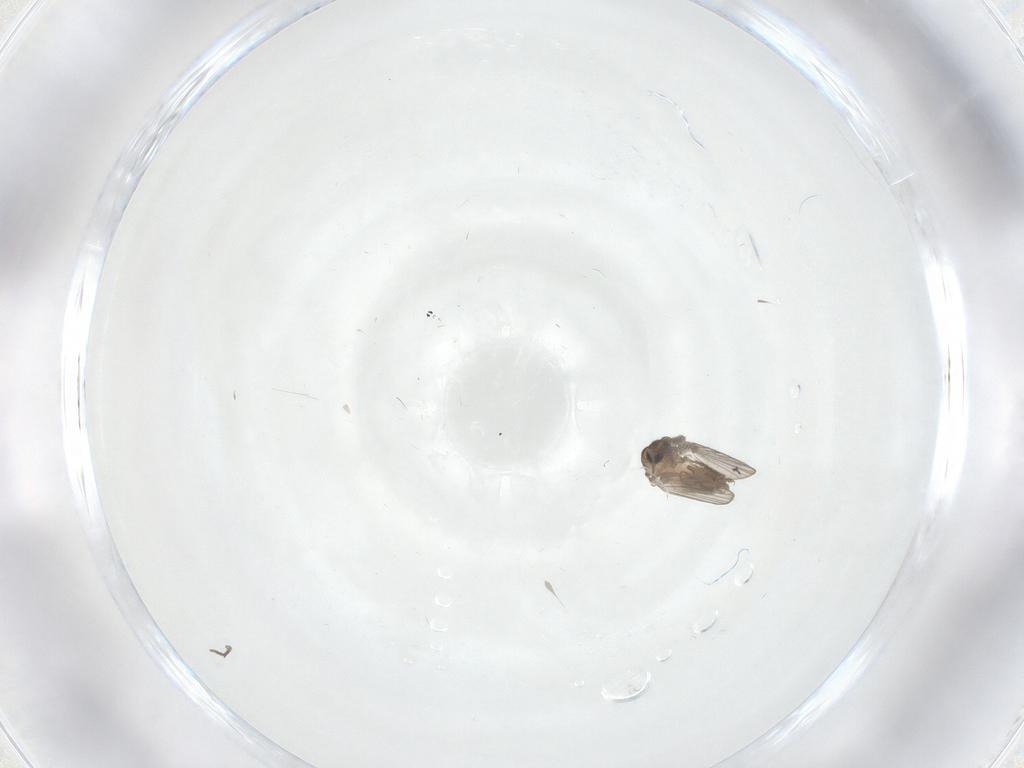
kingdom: Animalia
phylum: Arthropoda
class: Insecta
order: Diptera
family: Psychodidae
